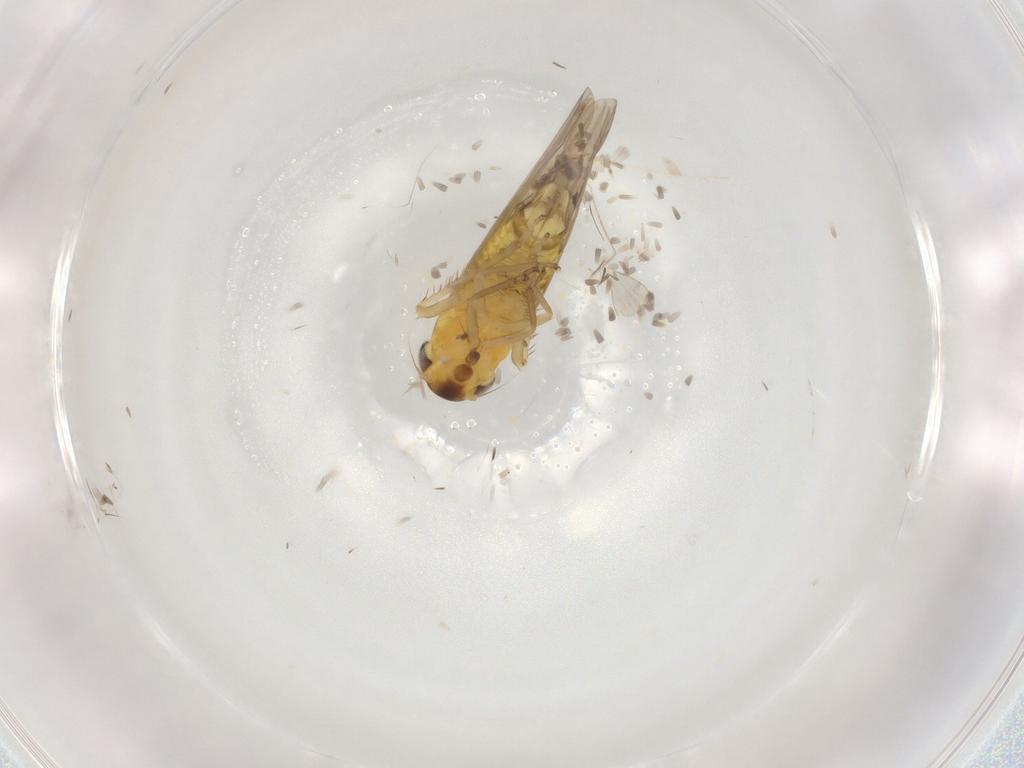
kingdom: Animalia
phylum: Arthropoda
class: Insecta
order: Hemiptera
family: Cicadellidae
